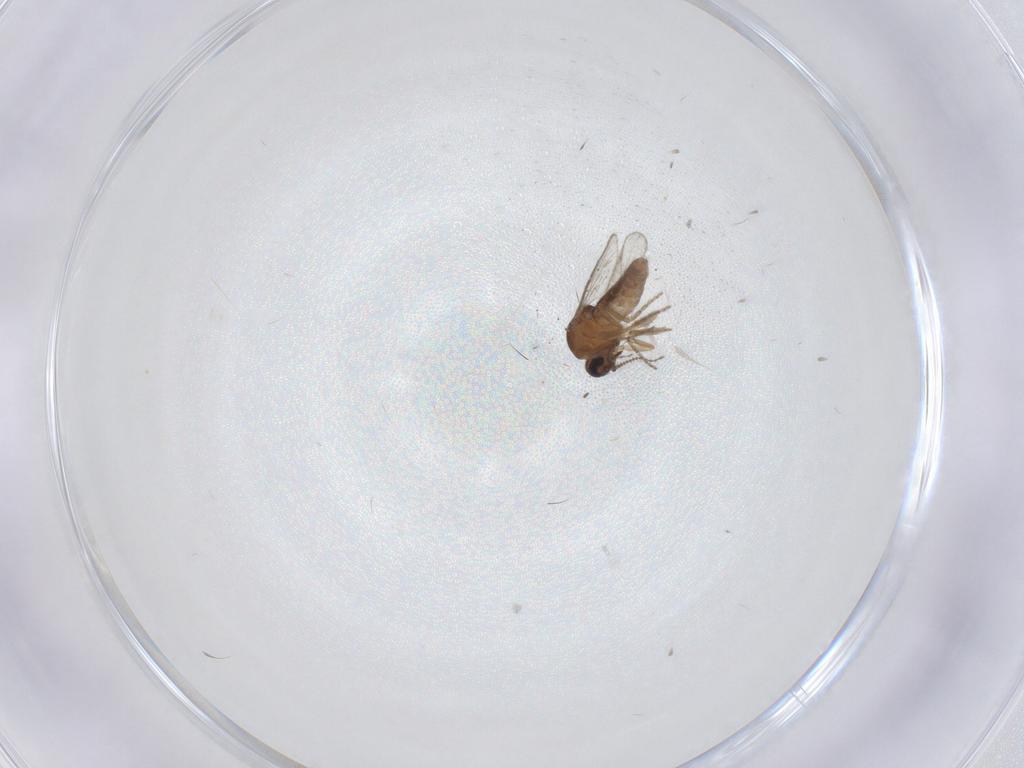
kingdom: Animalia
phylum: Arthropoda
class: Insecta
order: Diptera
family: Ceratopogonidae
